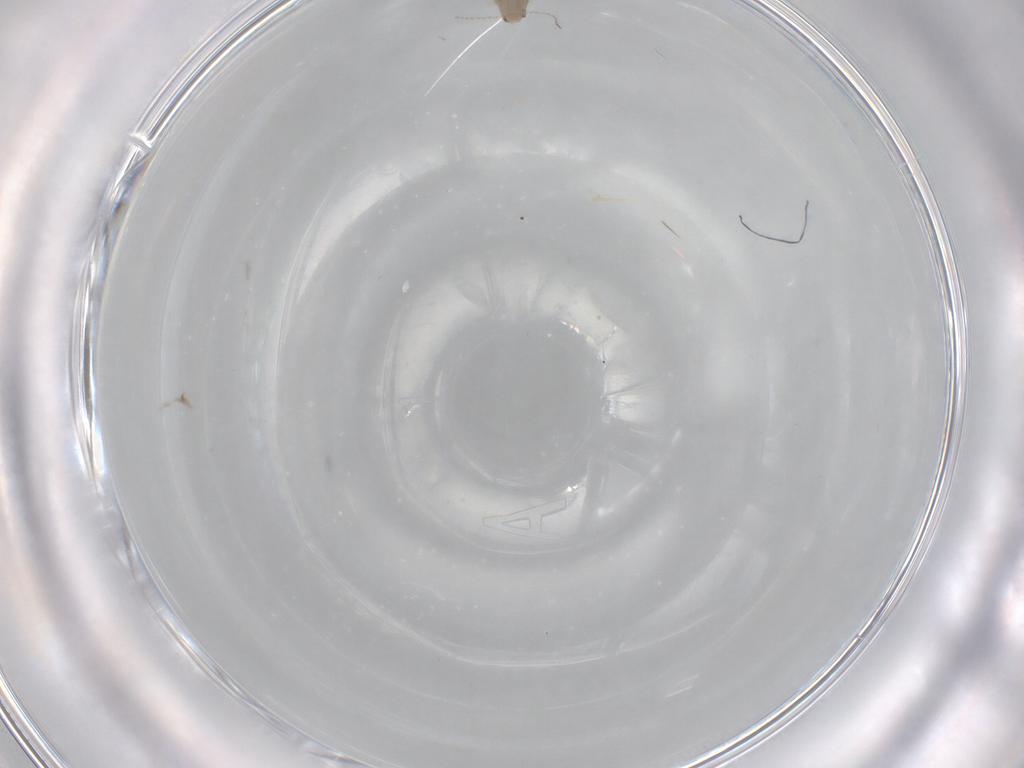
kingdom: Animalia
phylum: Arthropoda
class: Insecta
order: Diptera
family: Cecidomyiidae
